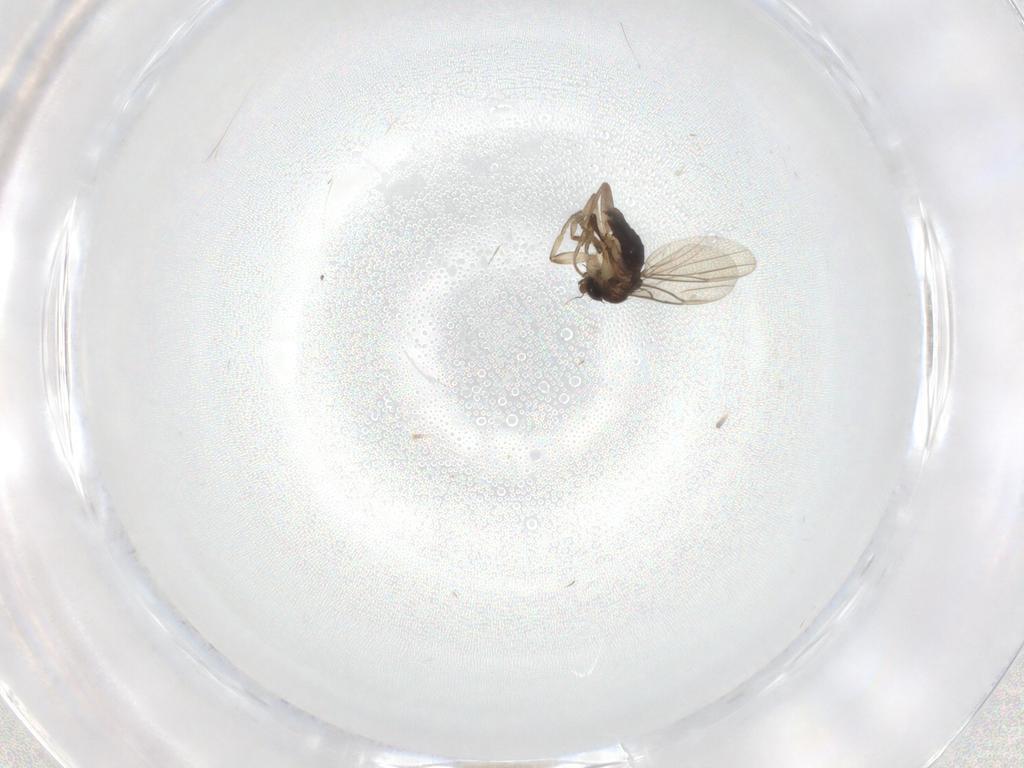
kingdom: Animalia
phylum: Arthropoda
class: Insecta
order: Diptera
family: Phoridae
